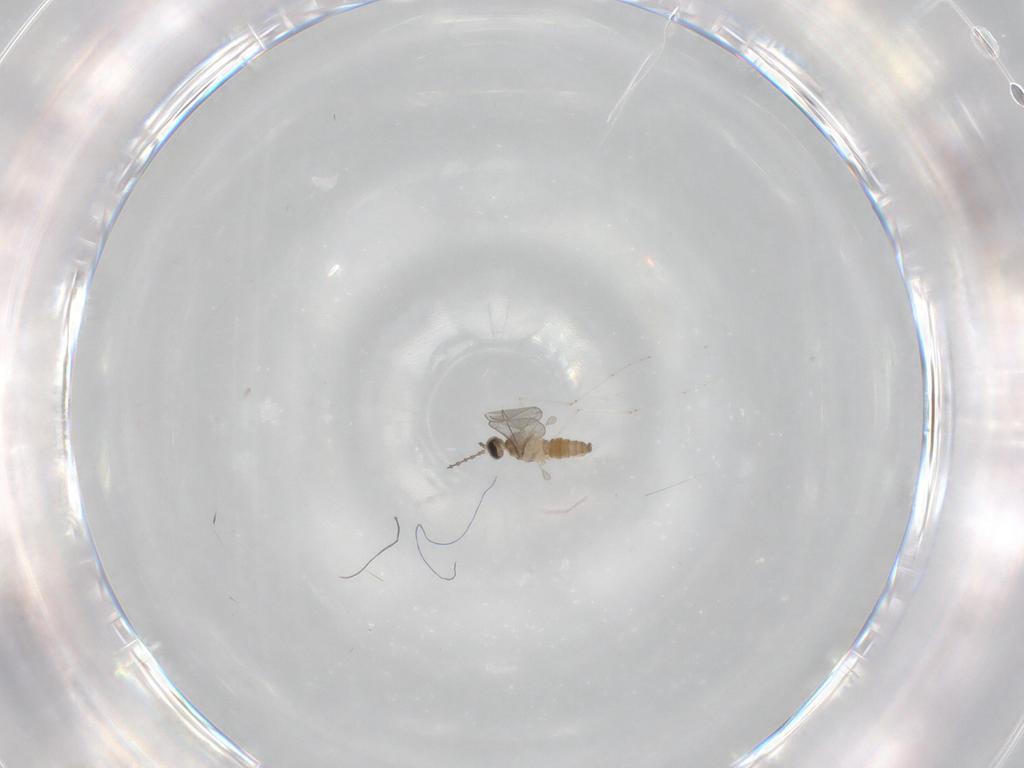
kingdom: Animalia
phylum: Arthropoda
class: Insecta
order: Diptera
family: Cecidomyiidae
